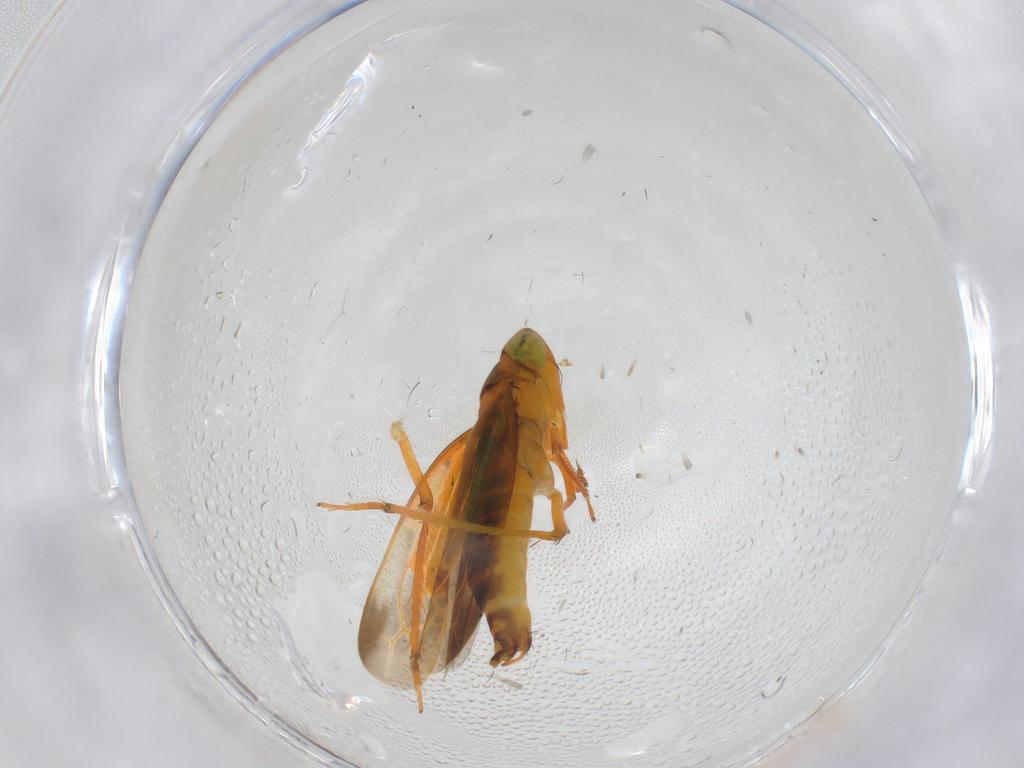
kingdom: Animalia
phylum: Arthropoda
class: Insecta
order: Hemiptera
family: Cicadellidae
